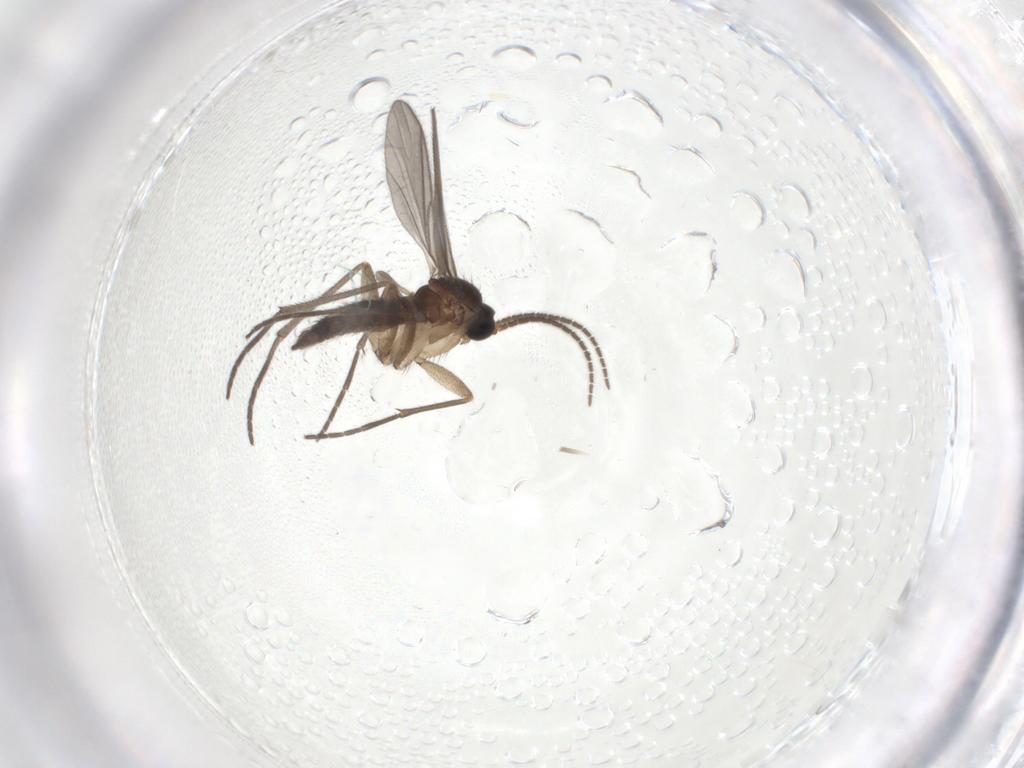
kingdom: Animalia
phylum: Arthropoda
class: Insecta
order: Diptera
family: Sciaridae
